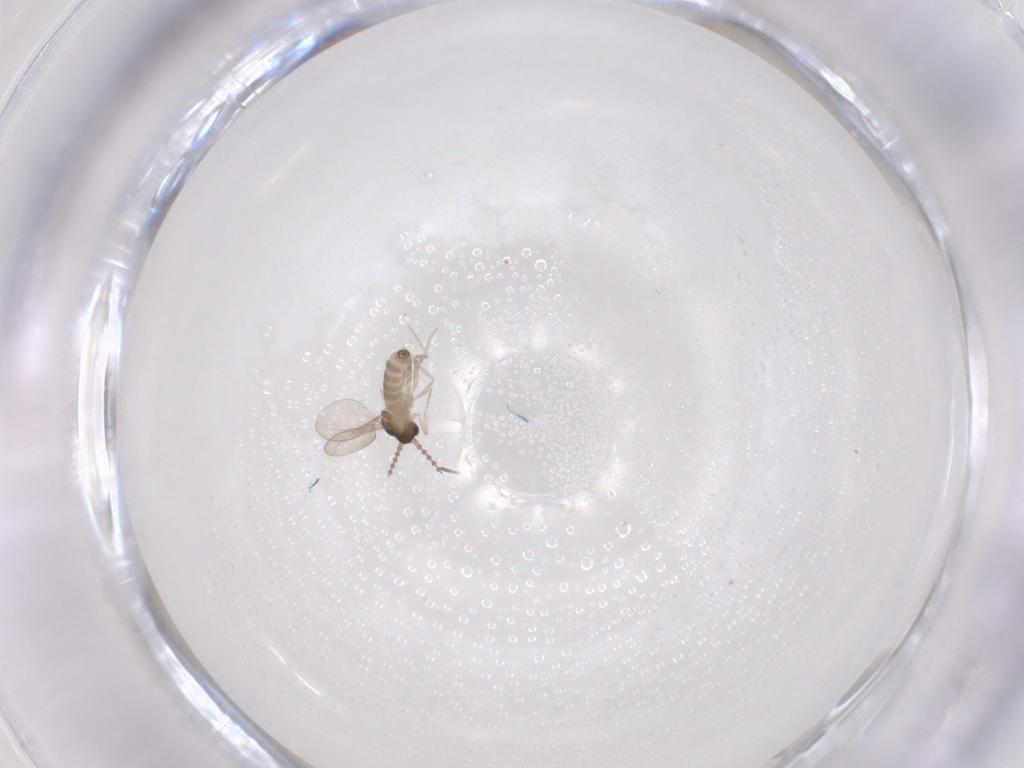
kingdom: Animalia
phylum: Arthropoda
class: Insecta
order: Diptera
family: Cecidomyiidae
